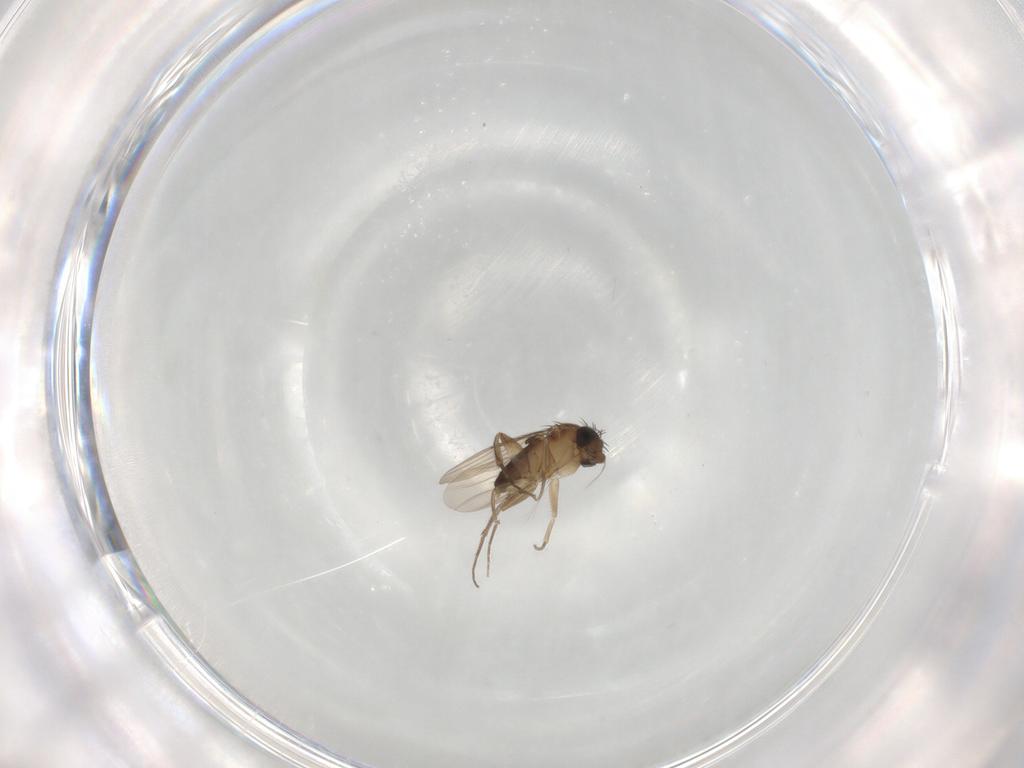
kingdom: Animalia
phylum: Arthropoda
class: Insecta
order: Diptera
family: Phoridae
